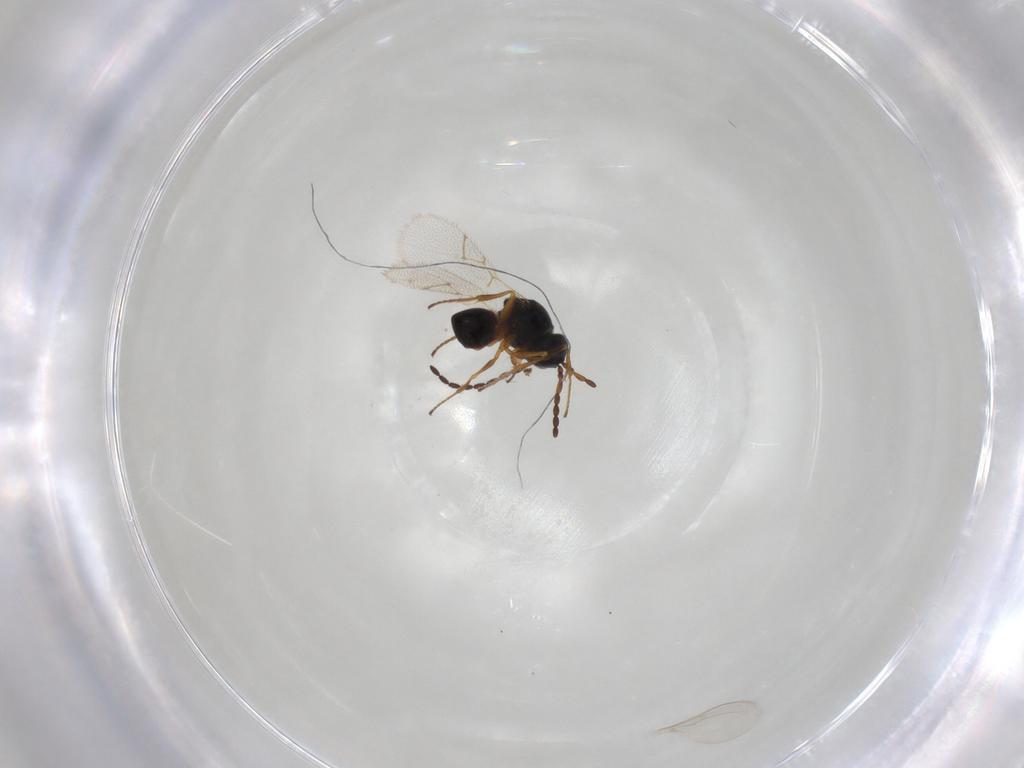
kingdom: Animalia
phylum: Arthropoda
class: Insecta
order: Hymenoptera
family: Figitidae
